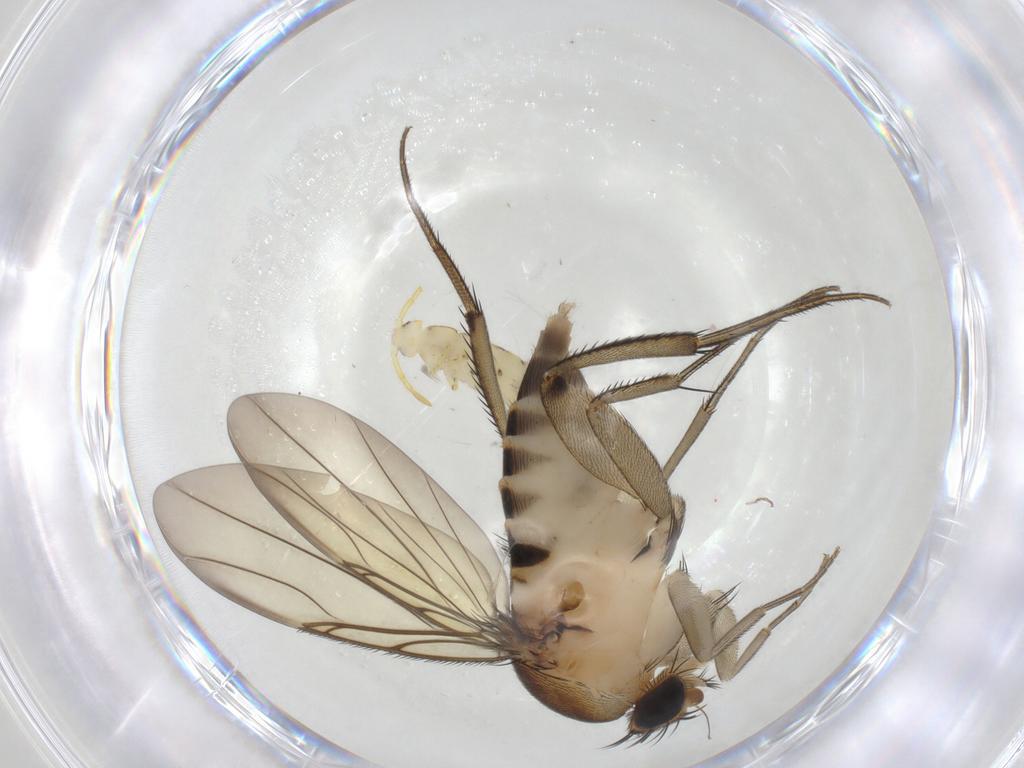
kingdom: Animalia
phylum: Arthropoda
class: Insecta
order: Diptera
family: Phoridae
